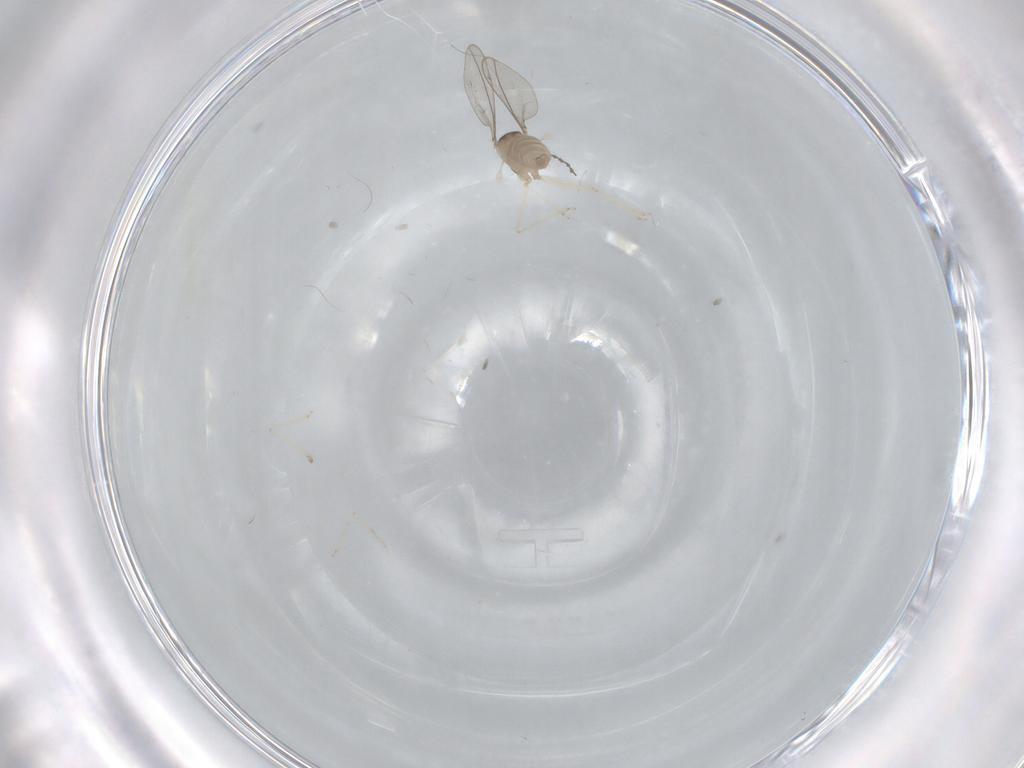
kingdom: Animalia
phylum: Arthropoda
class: Insecta
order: Diptera
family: Cecidomyiidae
